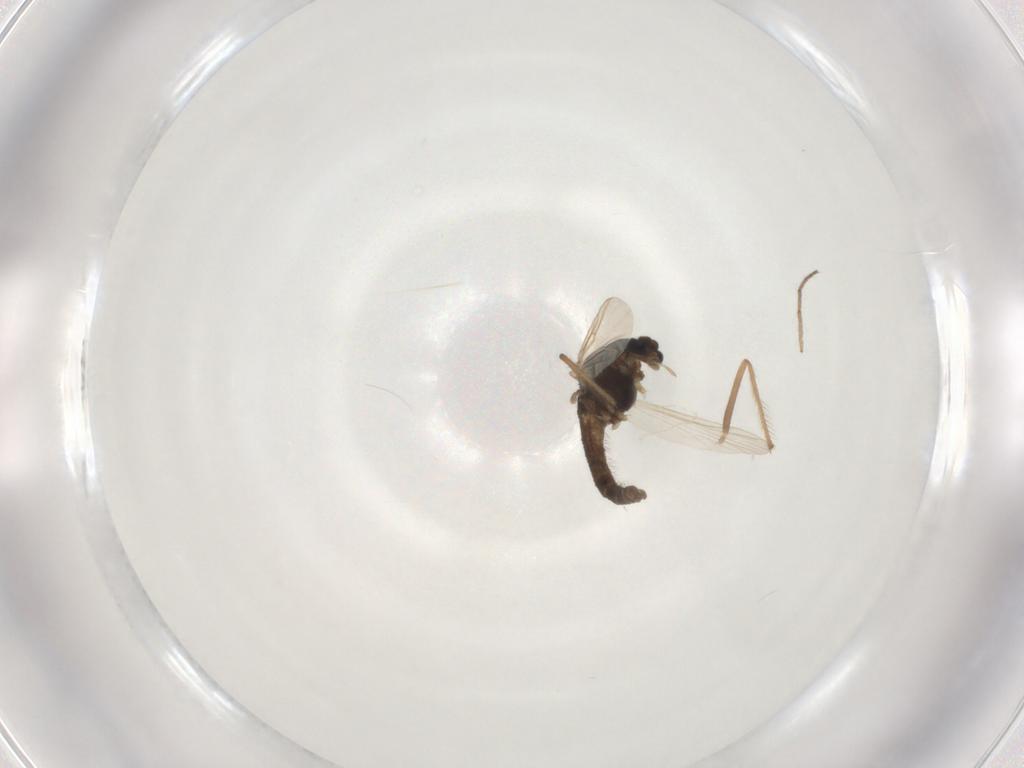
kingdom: Animalia
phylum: Arthropoda
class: Insecta
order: Diptera
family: Chironomidae
